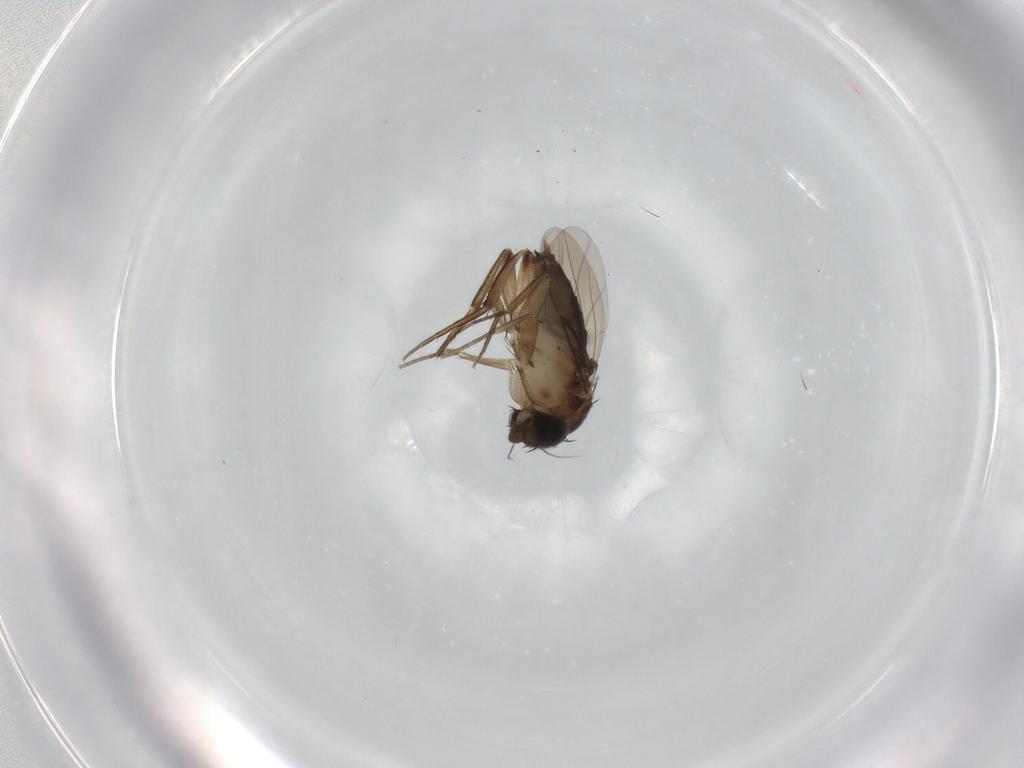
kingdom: Animalia
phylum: Arthropoda
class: Insecta
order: Diptera
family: Phoridae
